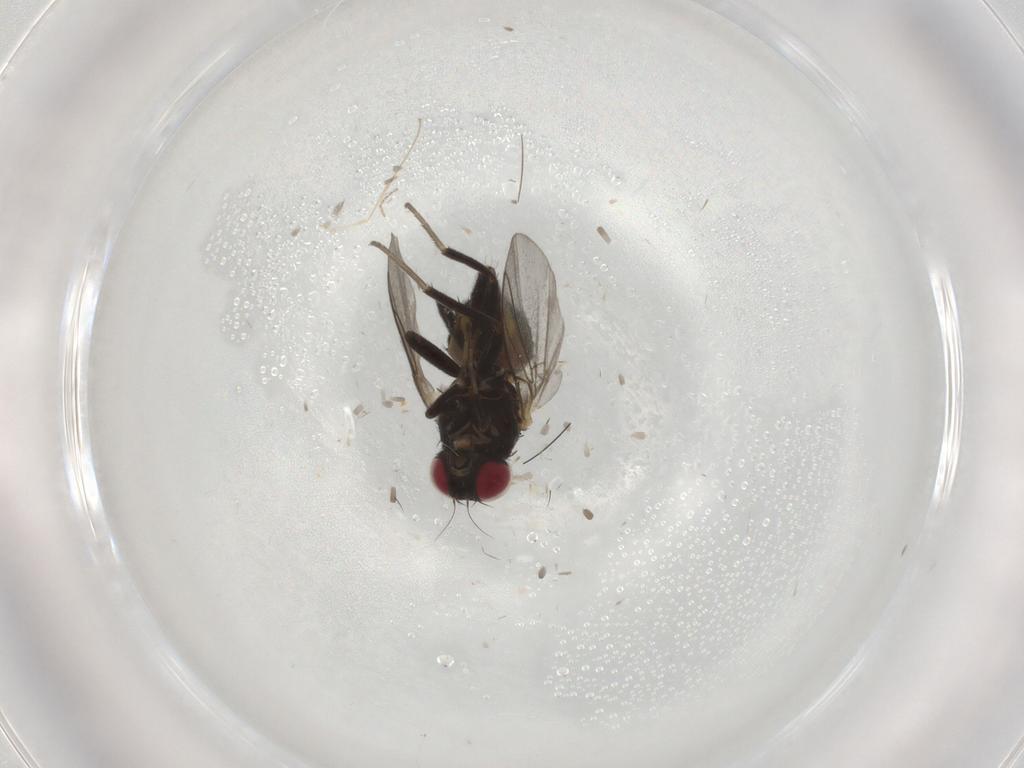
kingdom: Animalia
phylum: Arthropoda
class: Insecta
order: Diptera
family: Agromyzidae
